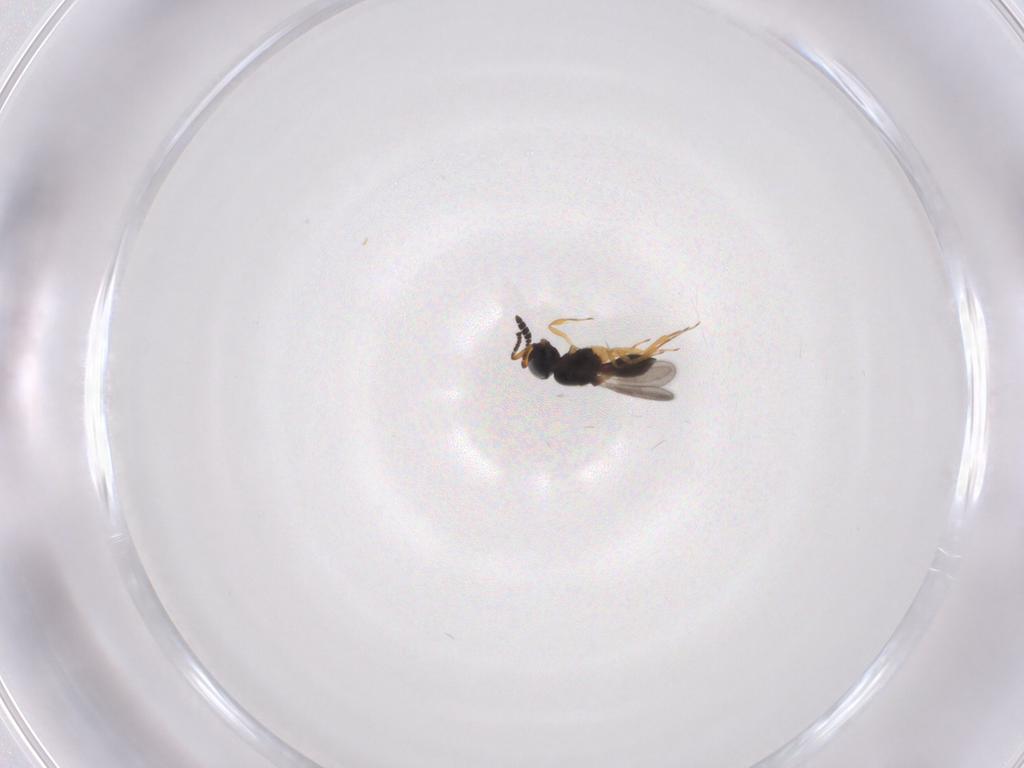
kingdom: Animalia
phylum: Arthropoda
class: Insecta
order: Hymenoptera
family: Scelionidae
